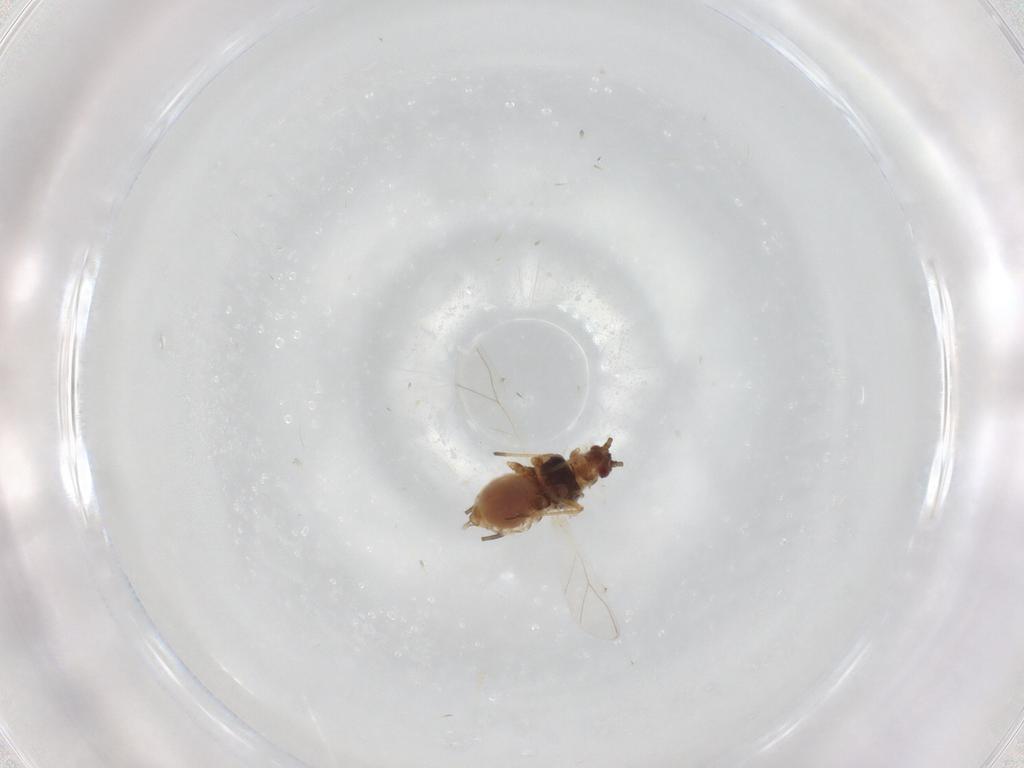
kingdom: Animalia
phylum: Arthropoda
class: Insecta
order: Hemiptera
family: Aphididae
